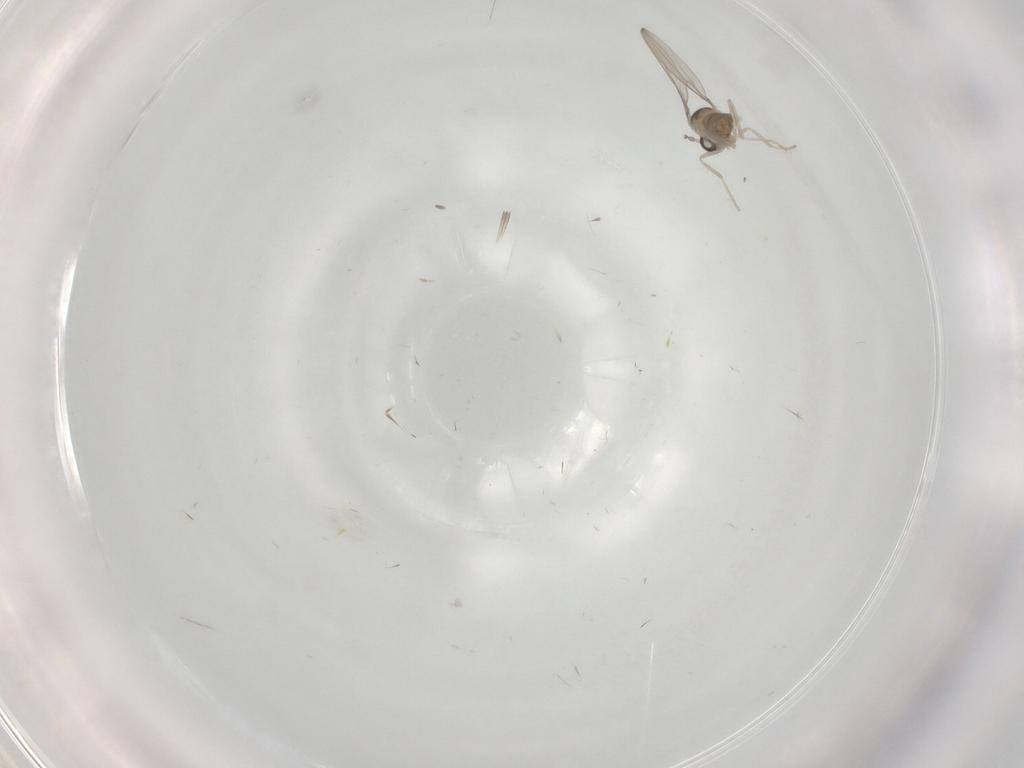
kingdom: Animalia
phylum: Arthropoda
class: Insecta
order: Diptera
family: Cecidomyiidae
